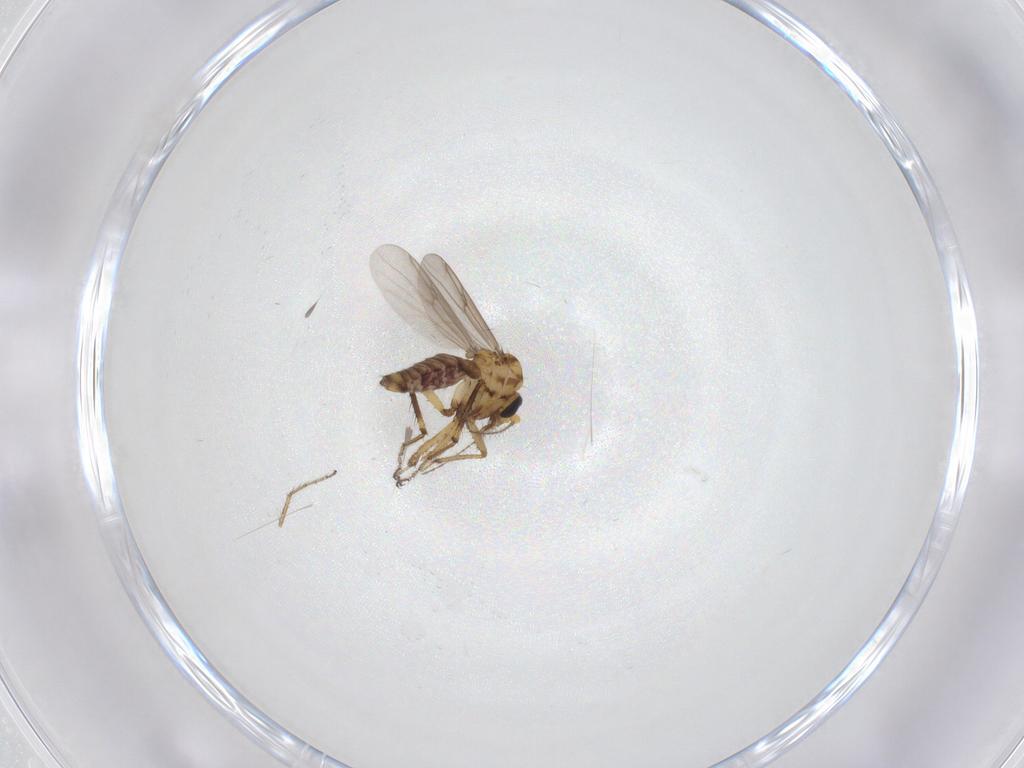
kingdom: Animalia
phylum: Arthropoda
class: Insecta
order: Diptera
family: Ceratopogonidae
